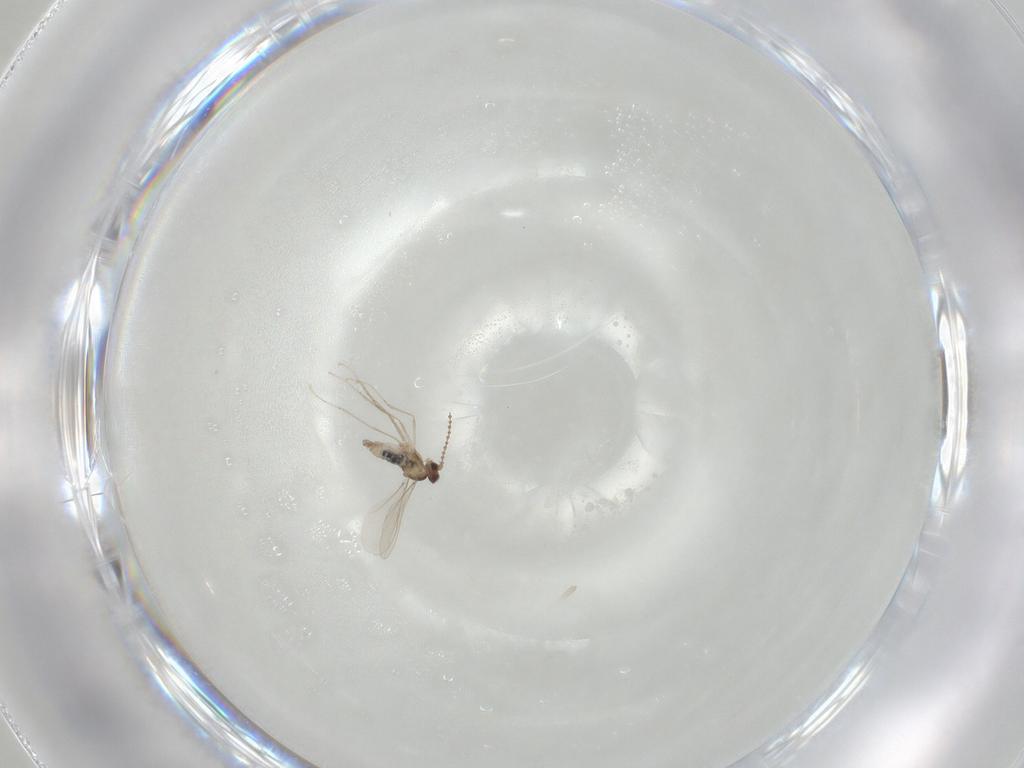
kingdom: Animalia
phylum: Arthropoda
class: Insecta
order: Diptera
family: Cecidomyiidae
